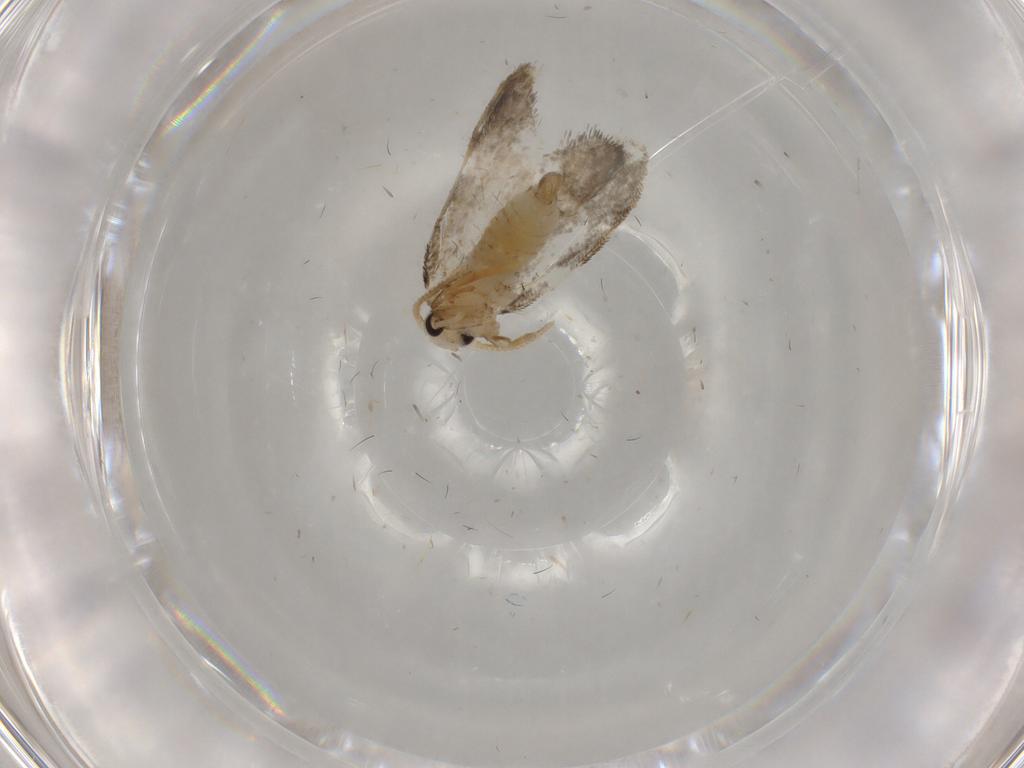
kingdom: Animalia
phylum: Arthropoda
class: Insecta
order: Lepidoptera
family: Psychidae
